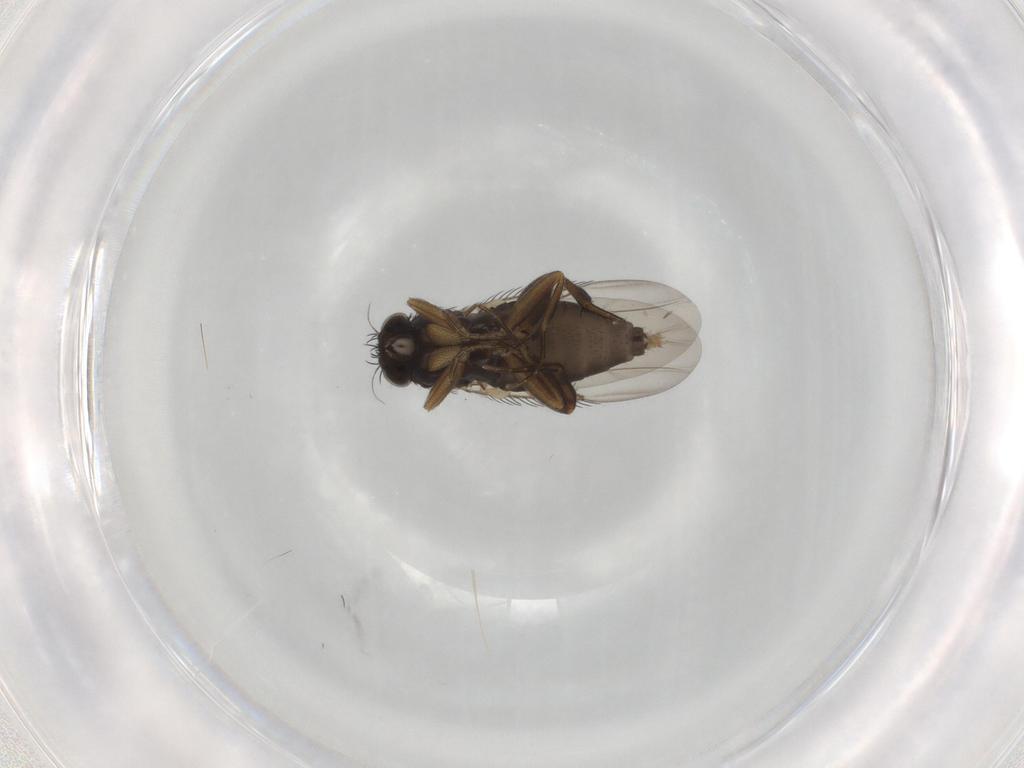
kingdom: Animalia
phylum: Arthropoda
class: Insecta
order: Diptera
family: Phoridae
